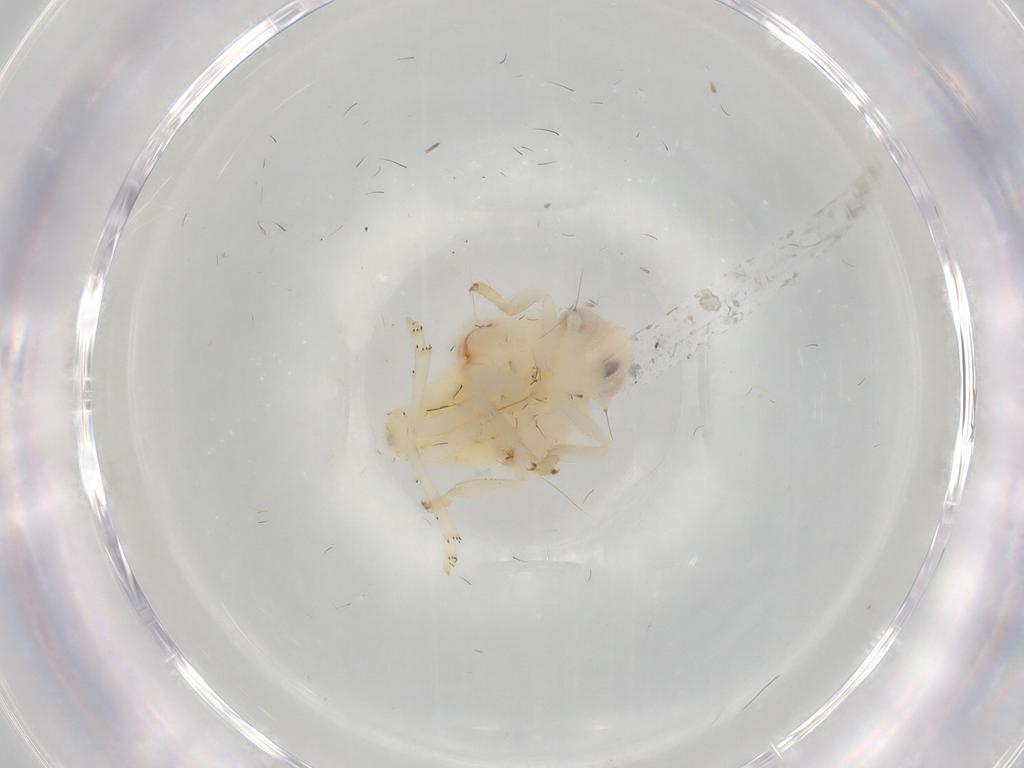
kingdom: Animalia
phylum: Arthropoda
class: Insecta
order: Hemiptera
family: Nogodinidae
